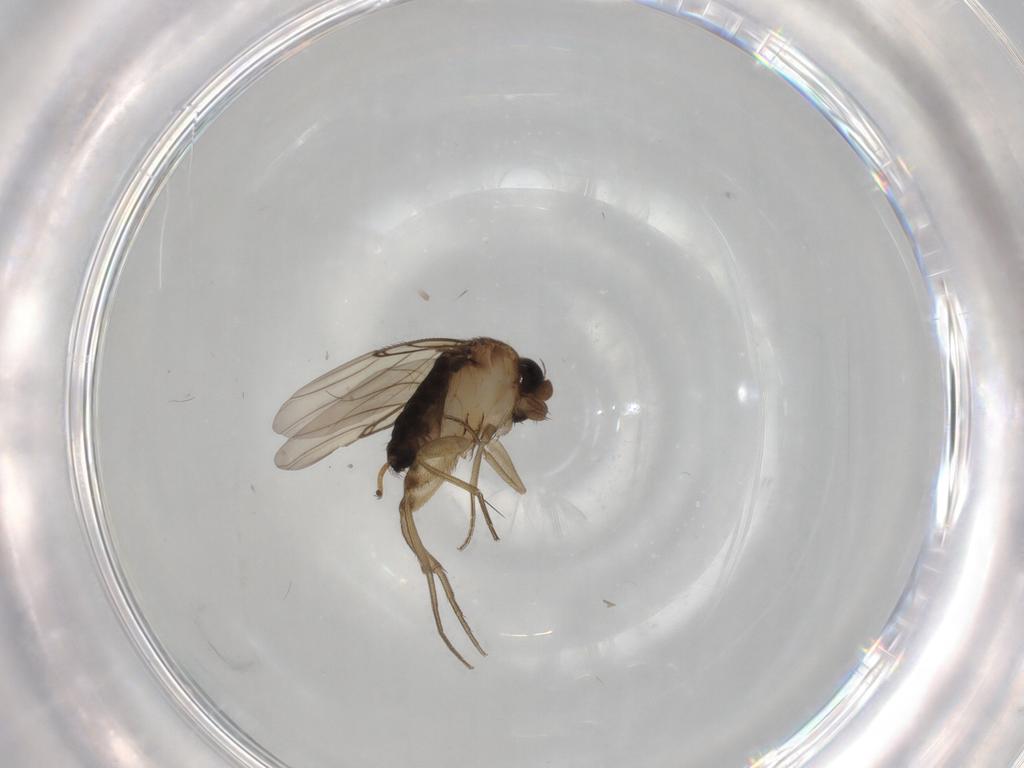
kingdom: Animalia
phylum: Arthropoda
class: Insecta
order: Diptera
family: Phoridae
